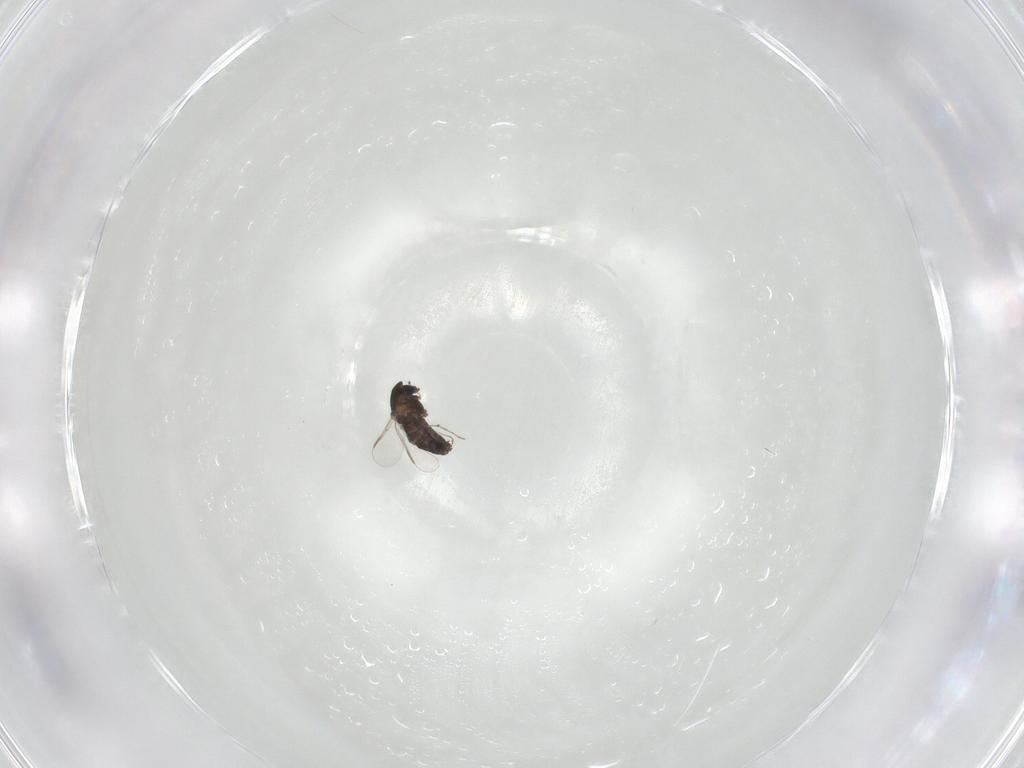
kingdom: Animalia
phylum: Arthropoda
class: Insecta
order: Diptera
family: Chironomidae
